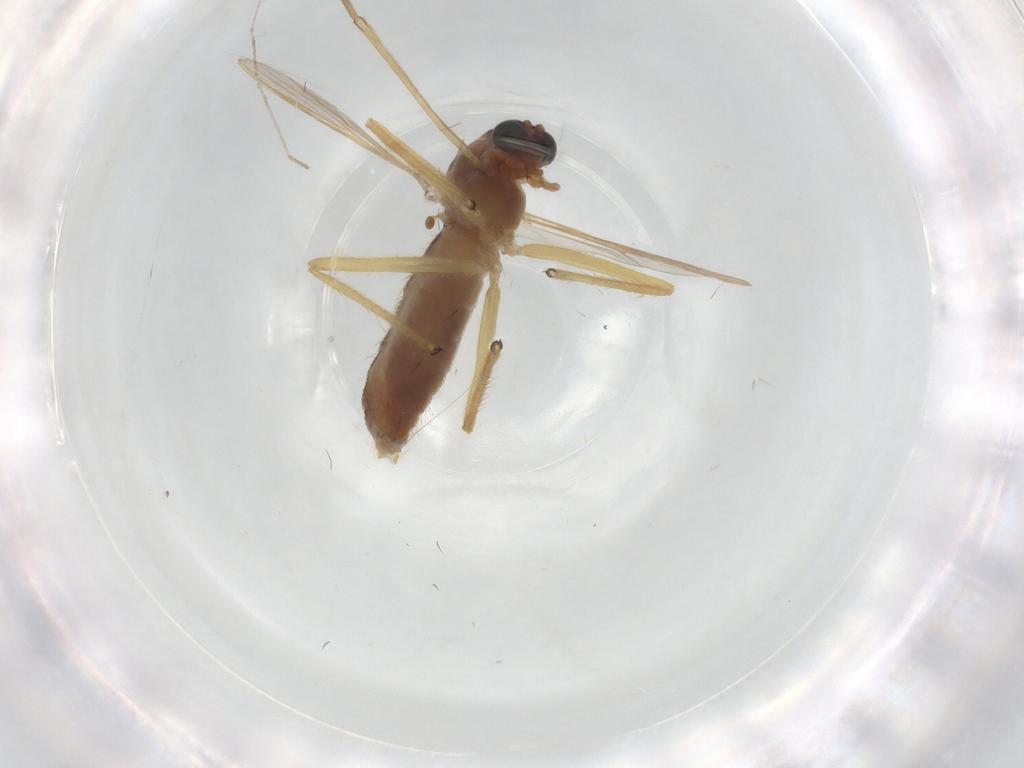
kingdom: Animalia
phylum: Arthropoda
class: Insecta
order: Diptera
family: Chironomidae
